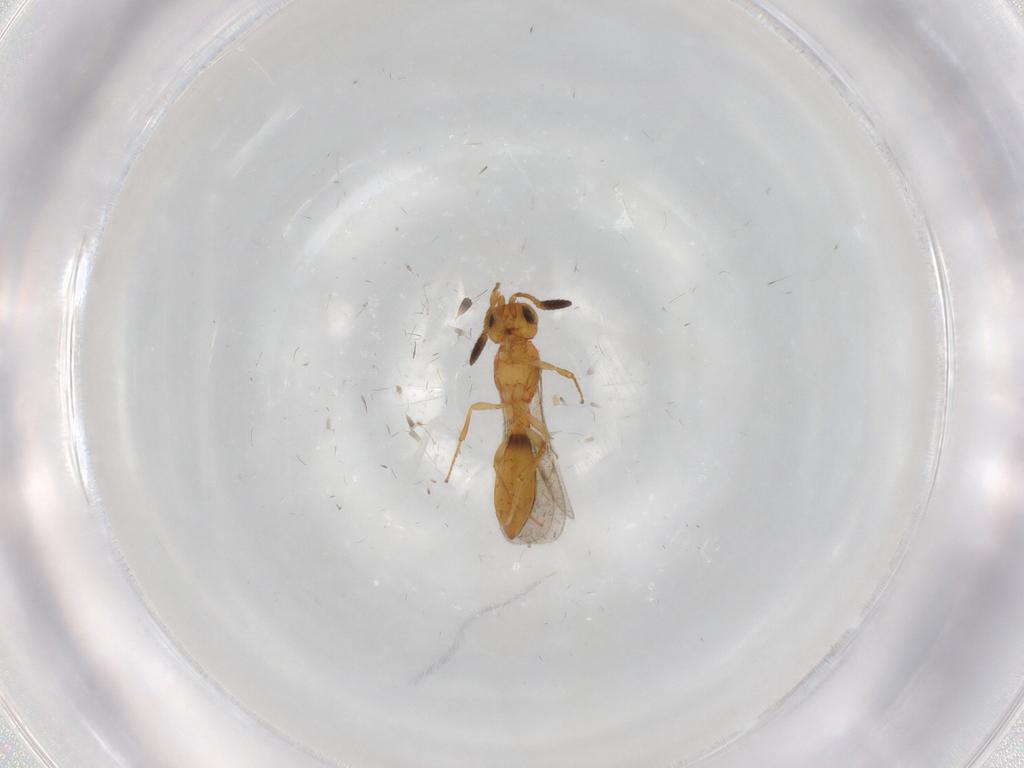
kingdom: Animalia
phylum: Arthropoda
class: Insecta
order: Hymenoptera
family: Scelionidae
